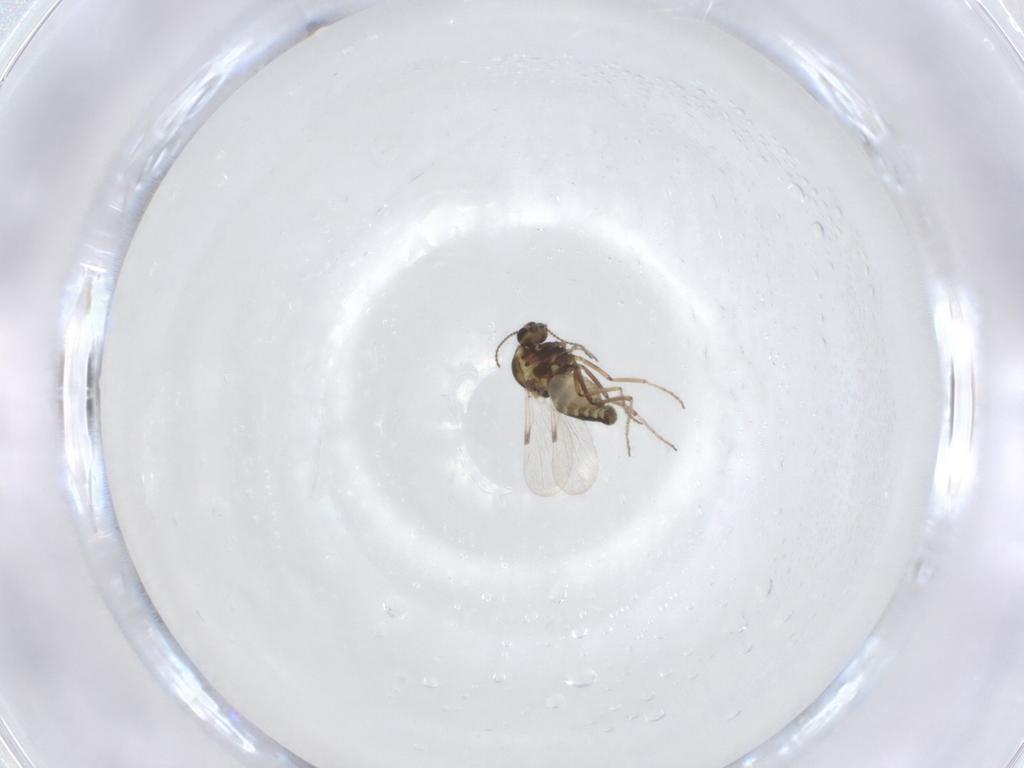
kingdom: Animalia
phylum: Arthropoda
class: Insecta
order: Diptera
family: Ceratopogonidae
